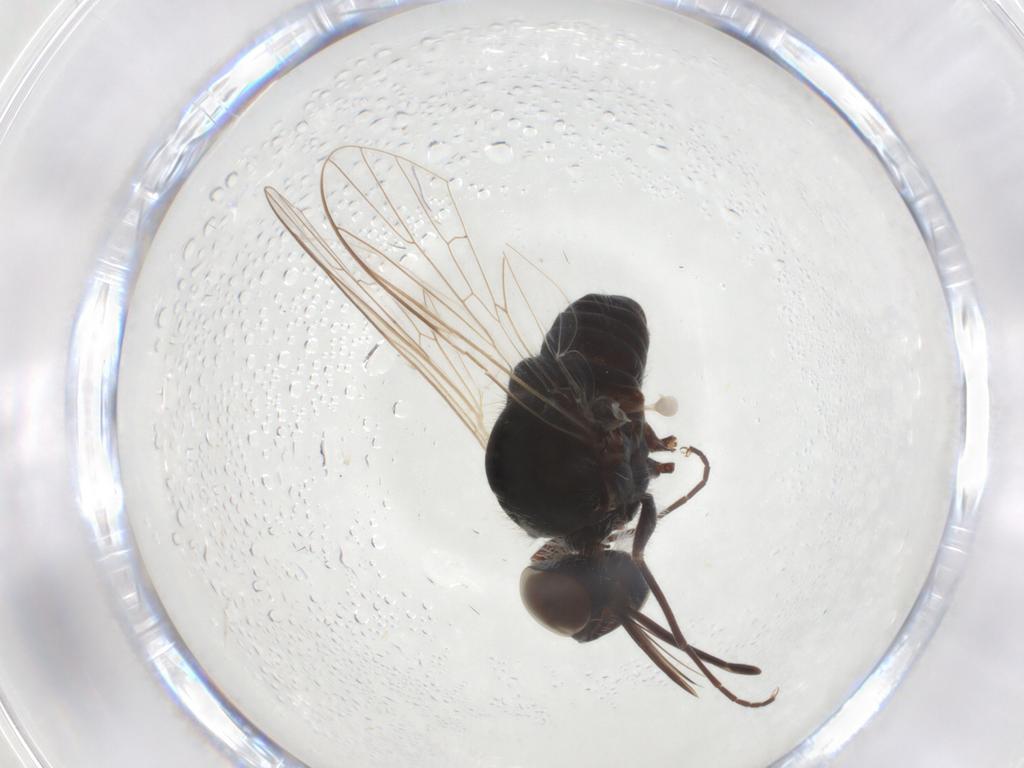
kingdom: Animalia
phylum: Arthropoda
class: Insecta
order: Diptera
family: Bombyliidae
